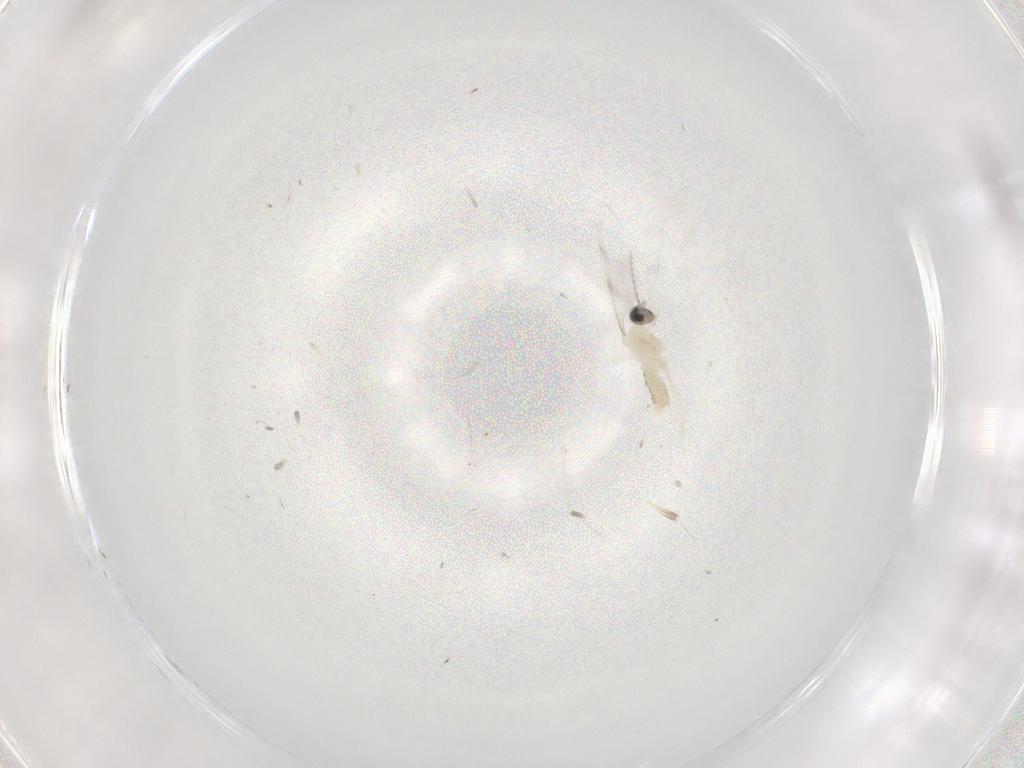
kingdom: Animalia
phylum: Arthropoda
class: Insecta
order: Diptera
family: Cecidomyiidae
